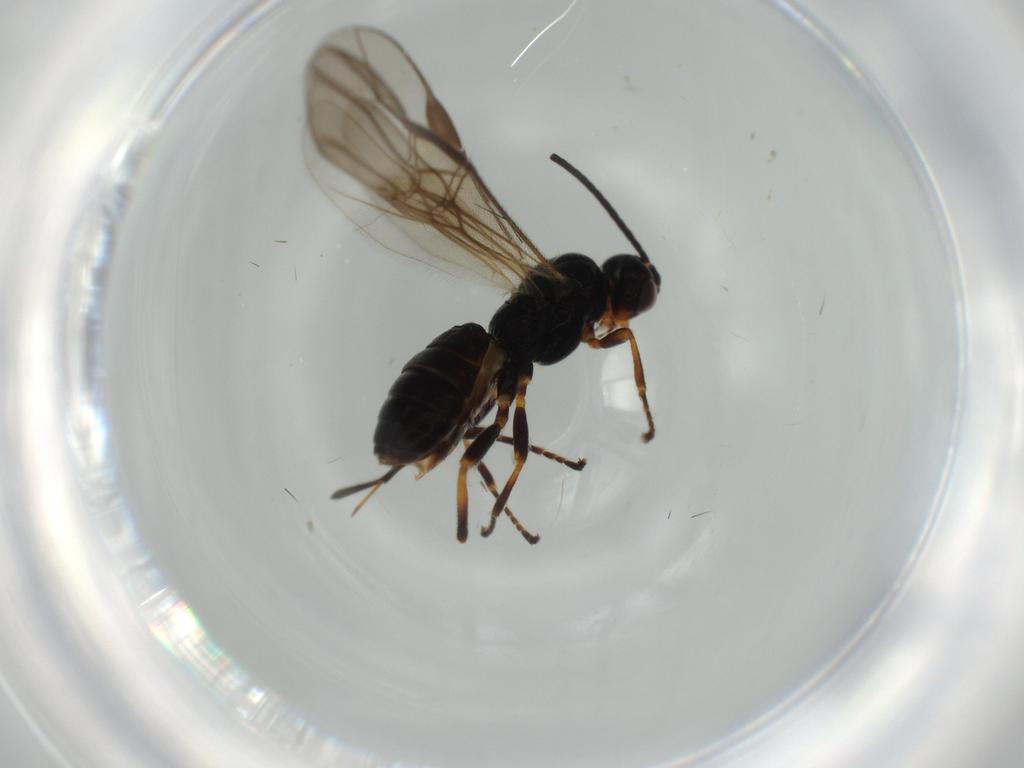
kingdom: Animalia
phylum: Arthropoda
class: Insecta
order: Hymenoptera
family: Braconidae
